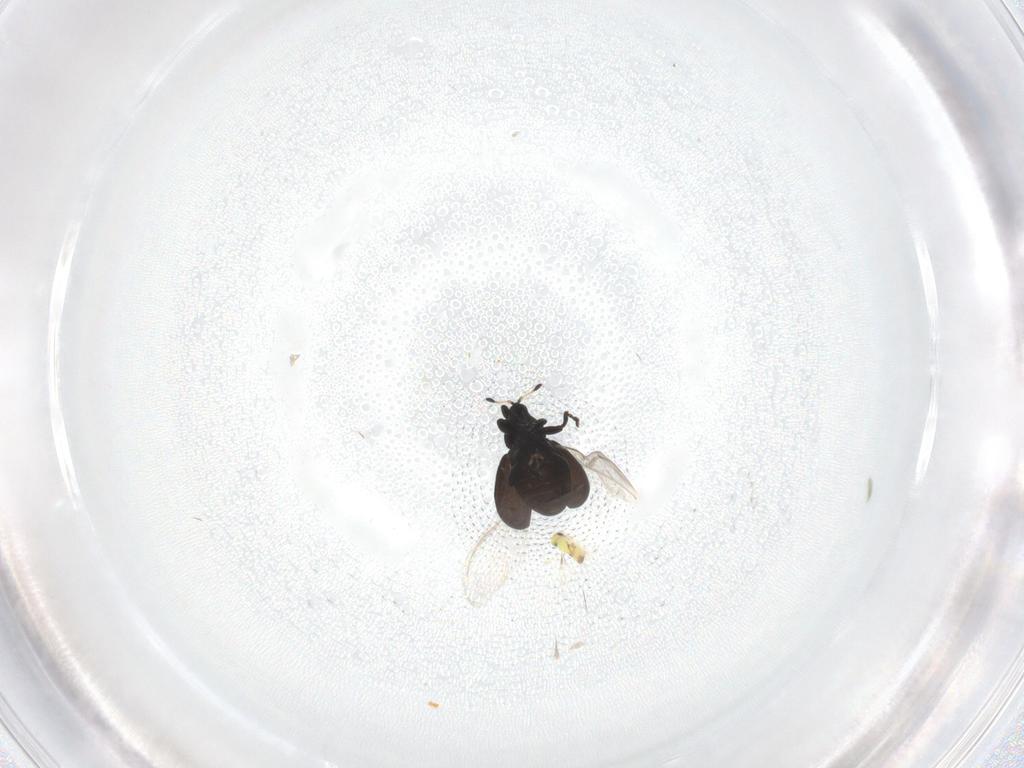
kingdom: Animalia
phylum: Arthropoda
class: Insecta
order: Coleoptera
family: Curculionidae
